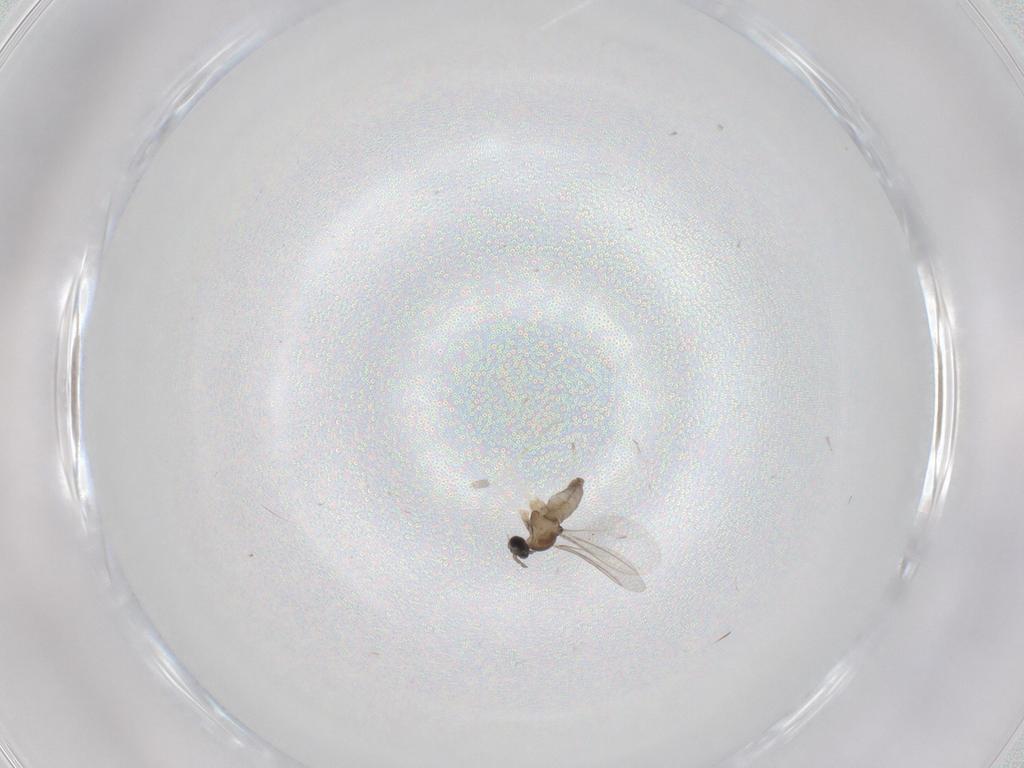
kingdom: Animalia
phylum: Arthropoda
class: Insecta
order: Diptera
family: Cecidomyiidae
